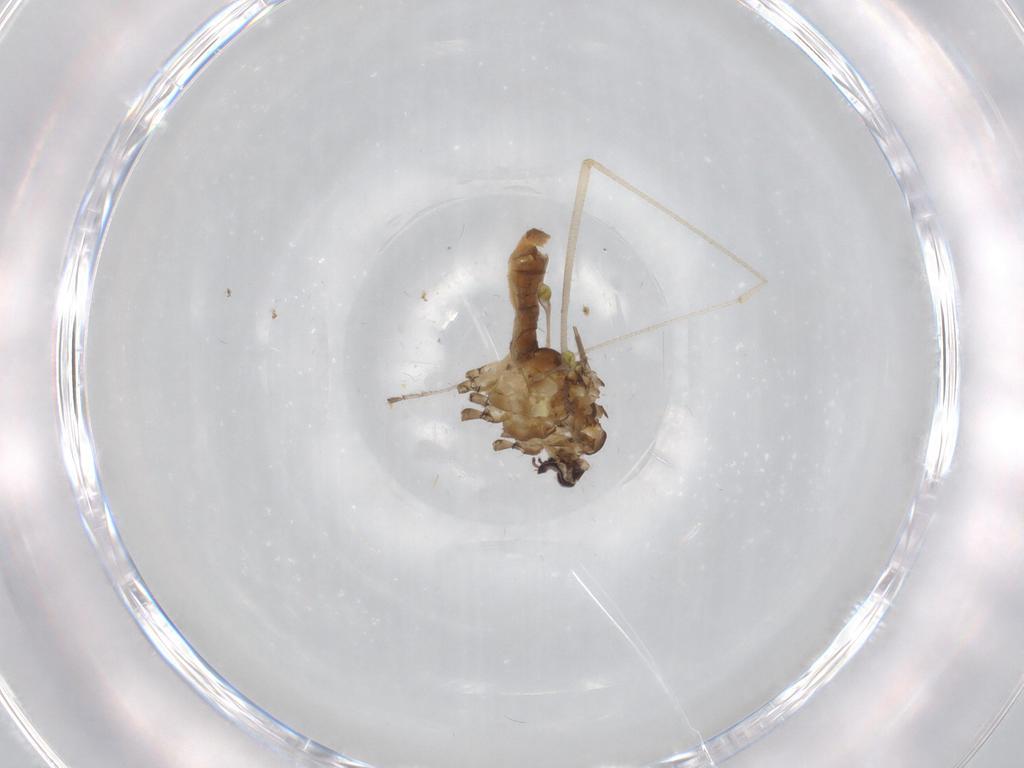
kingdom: Animalia
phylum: Arthropoda
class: Insecta
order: Diptera
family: Limoniidae
